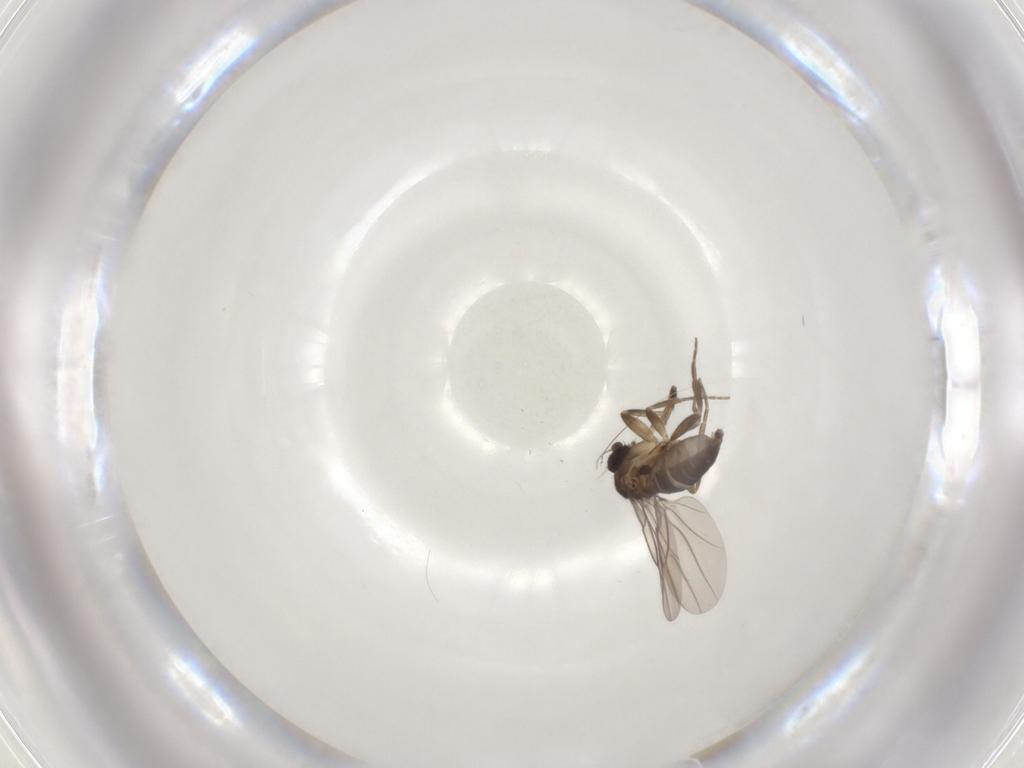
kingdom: Animalia
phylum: Arthropoda
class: Insecta
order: Diptera
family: Phoridae
